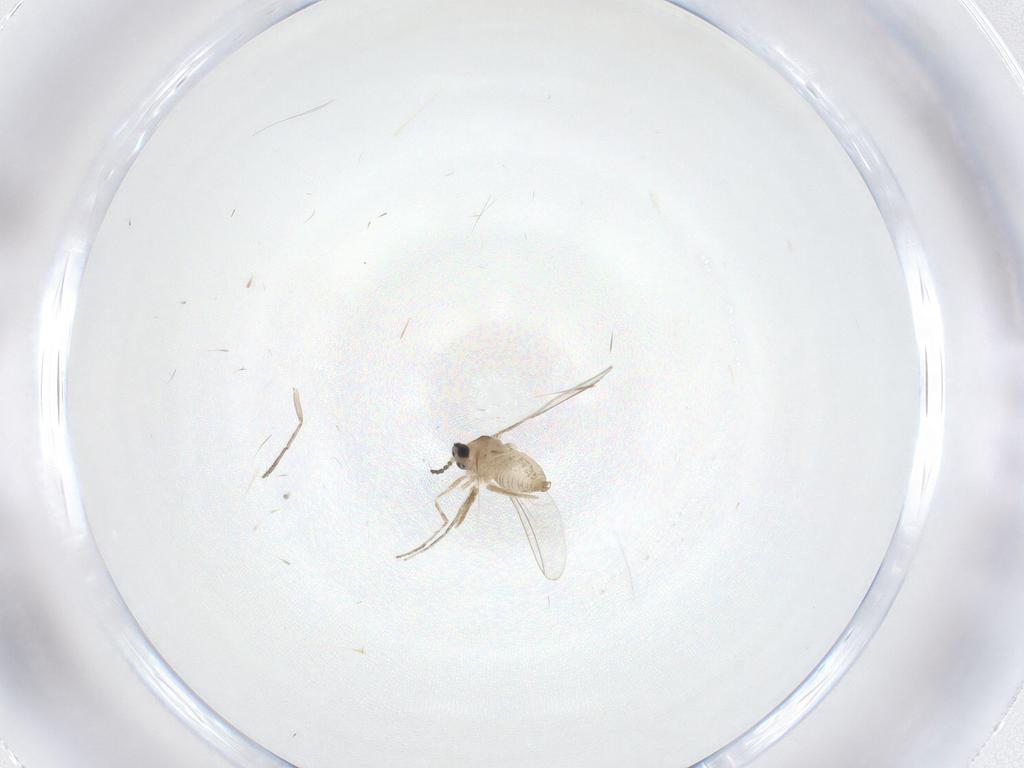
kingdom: Animalia
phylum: Arthropoda
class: Insecta
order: Diptera
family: Cecidomyiidae
